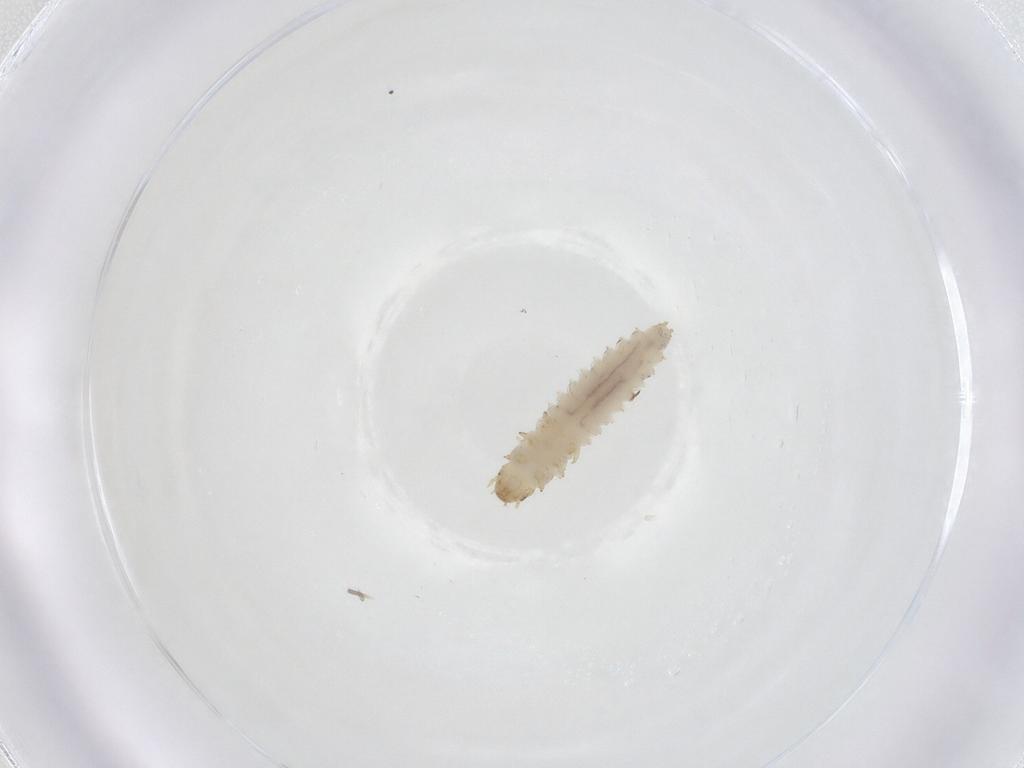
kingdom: Animalia
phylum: Arthropoda
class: Insecta
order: Coleoptera
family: Nitidulidae
